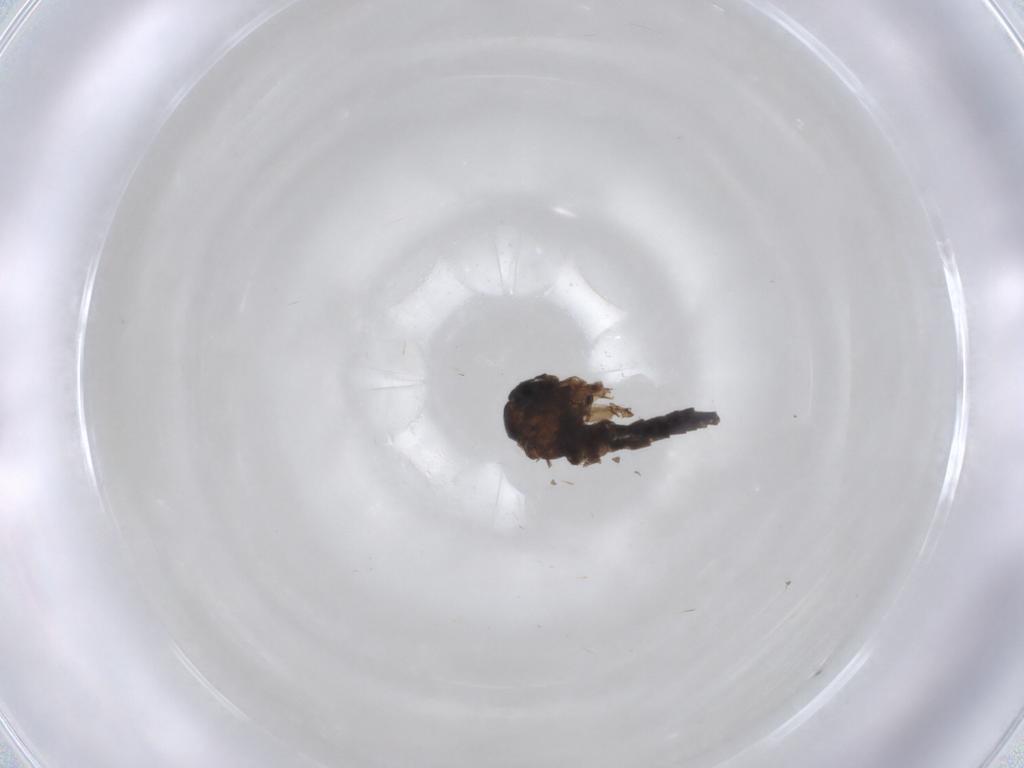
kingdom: Animalia
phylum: Arthropoda
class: Insecta
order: Diptera
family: Sciaridae
